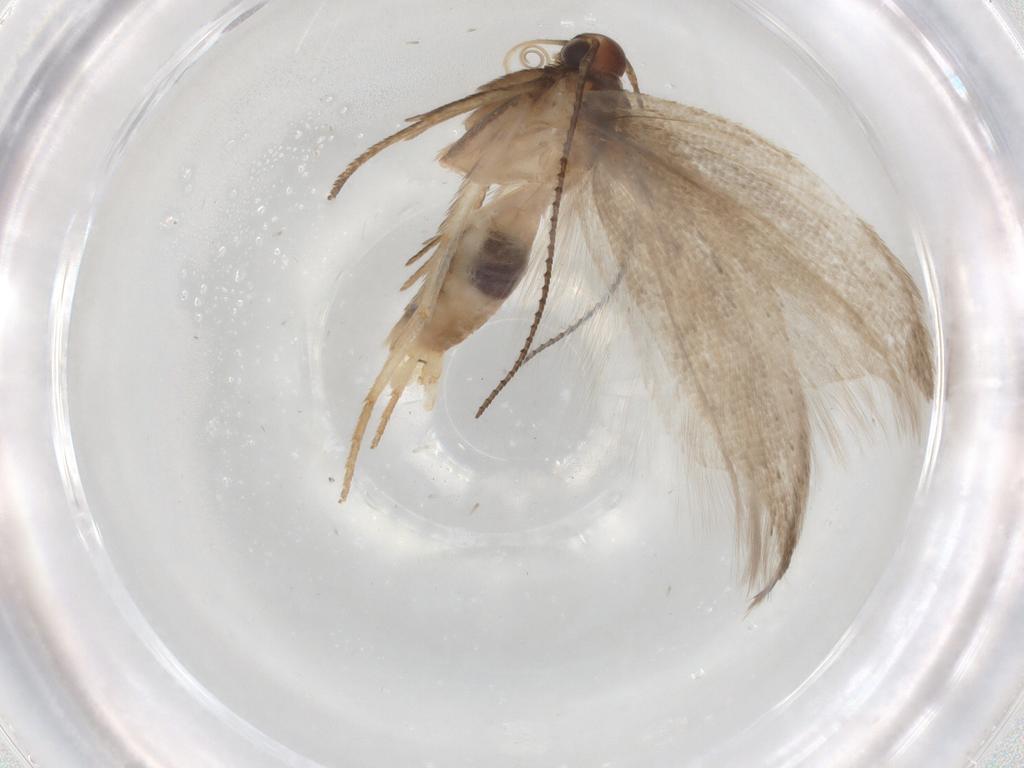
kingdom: Animalia
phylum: Arthropoda
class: Insecta
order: Lepidoptera
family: Gelechiidae
